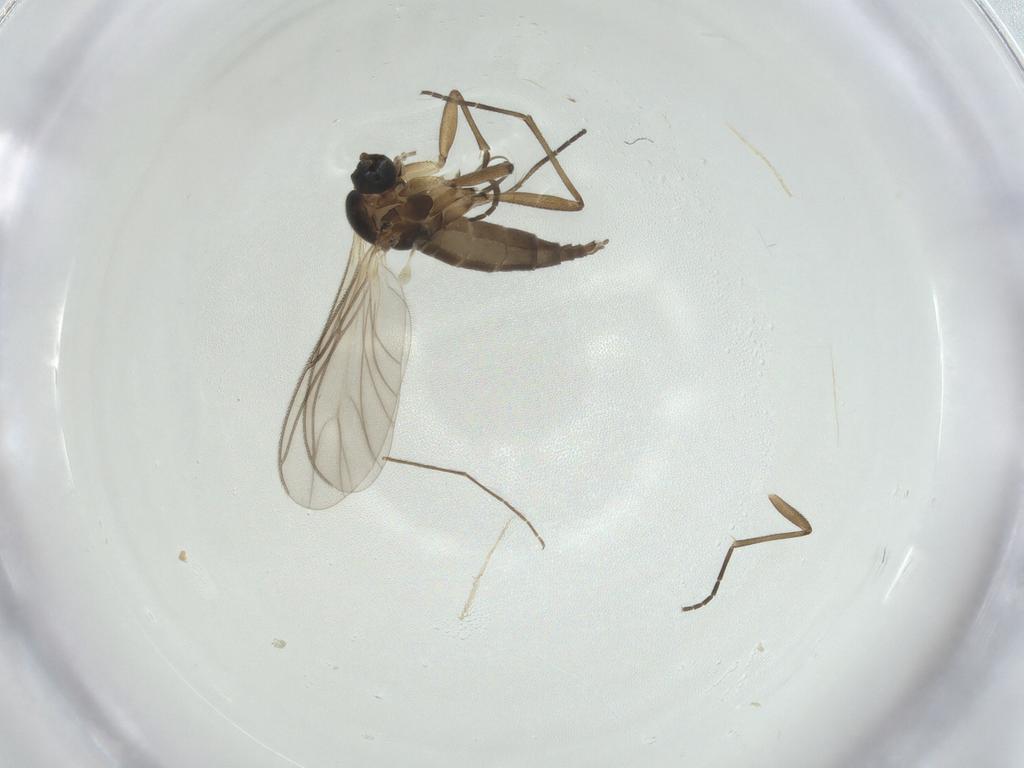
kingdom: Animalia
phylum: Arthropoda
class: Insecta
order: Diptera
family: Chironomidae
